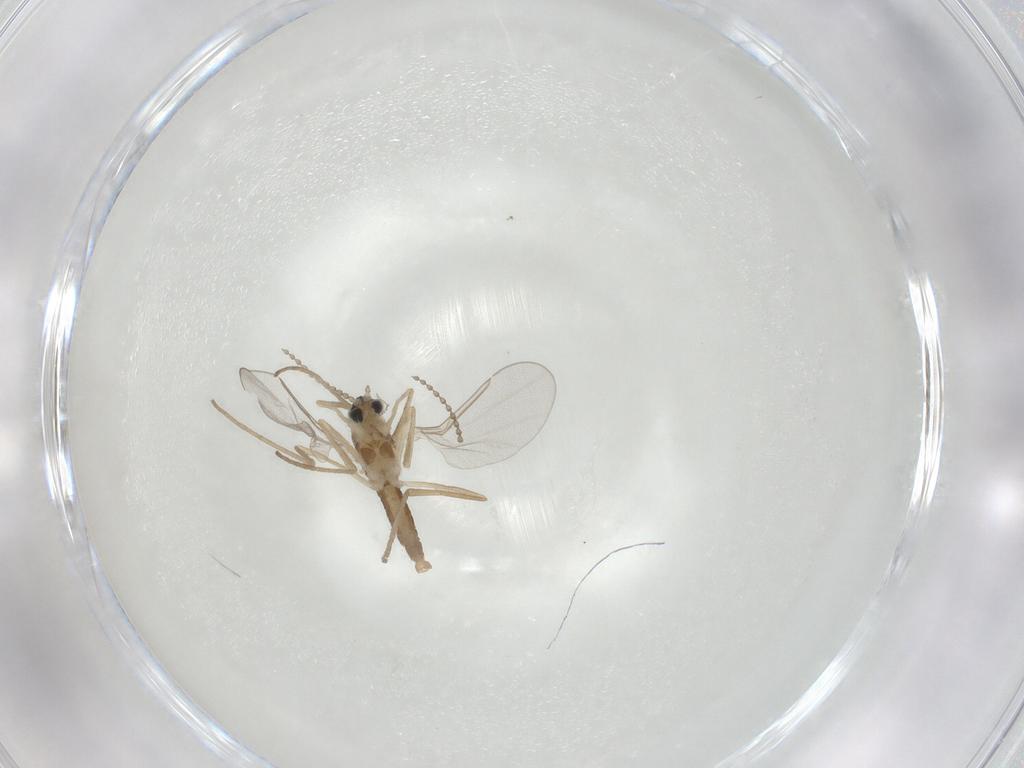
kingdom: Animalia
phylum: Arthropoda
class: Insecta
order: Diptera
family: Cecidomyiidae
